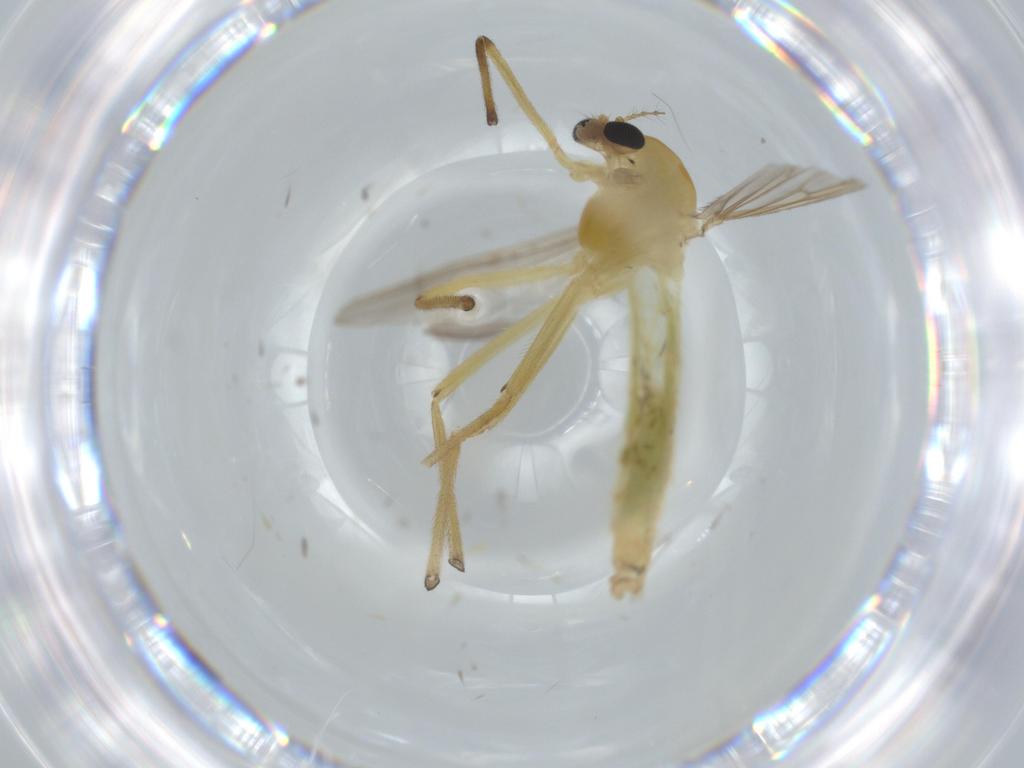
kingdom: Animalia
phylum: Arthropoda
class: Insecta
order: Diptera
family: Chironomidae
